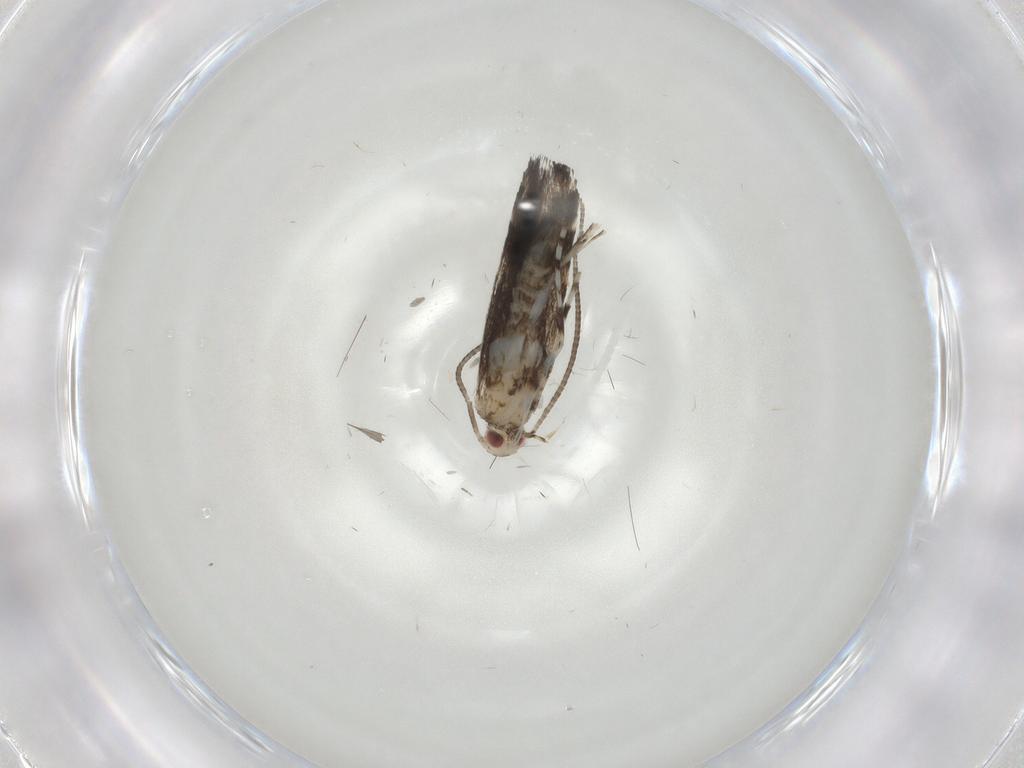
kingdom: Animalia
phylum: Arthropoda
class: Insecta
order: Lepidoptera
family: Gracillariidae
